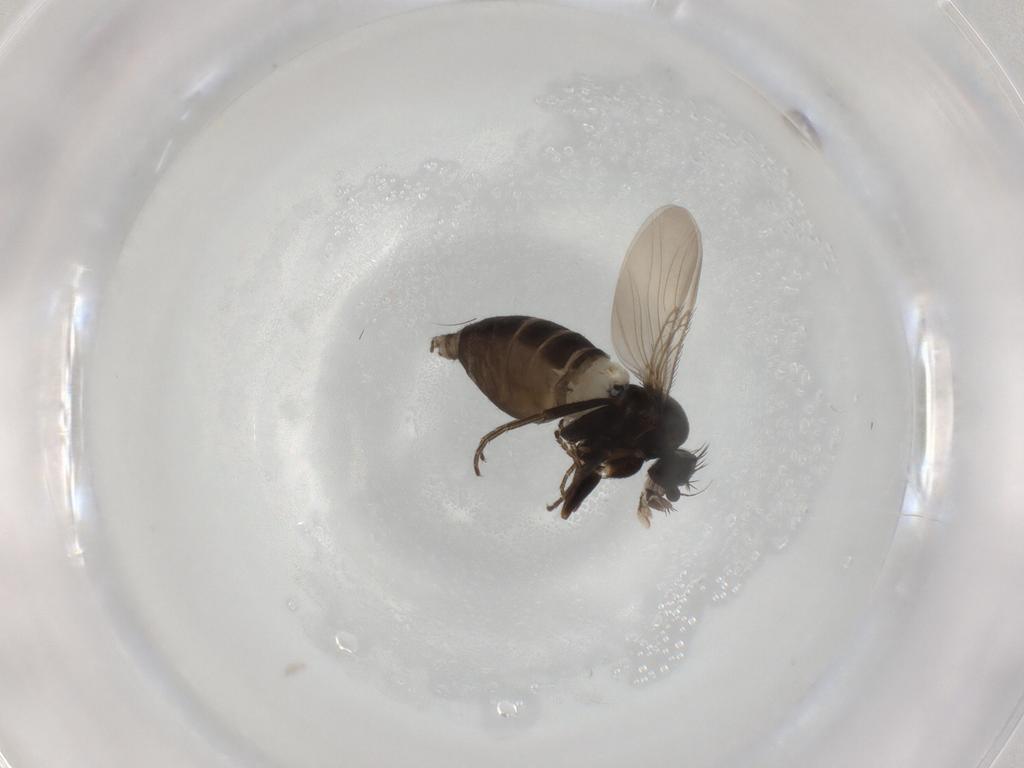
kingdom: Animalia
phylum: Arthropoda
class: Insecta
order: Diptera
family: Phoridae
